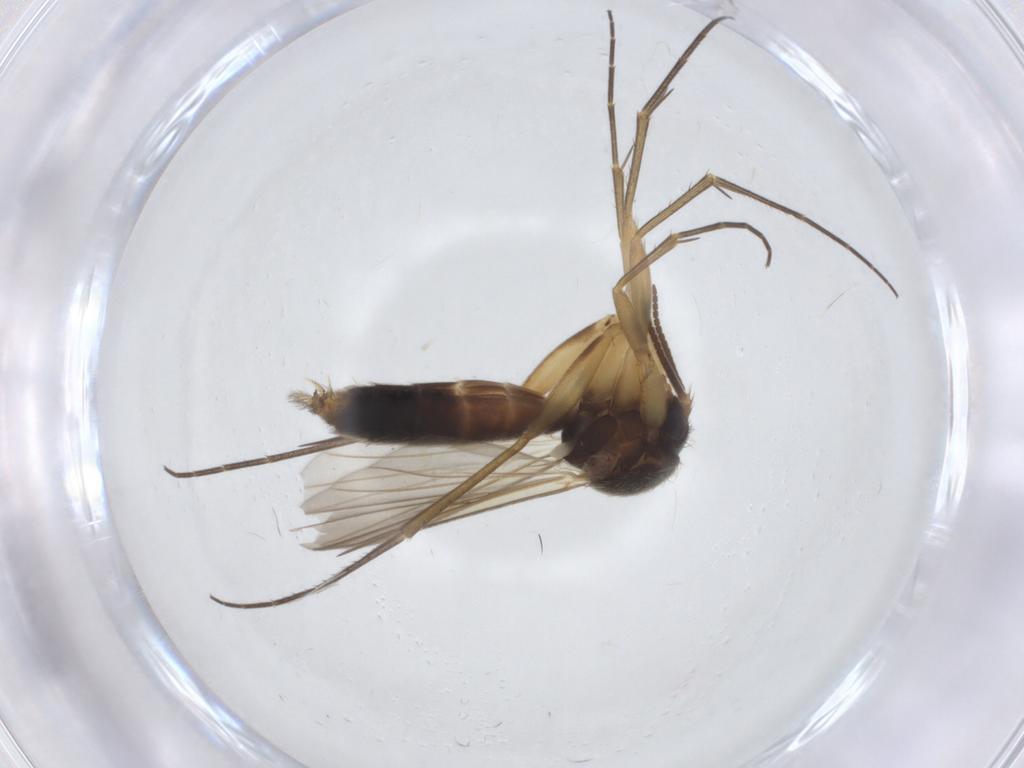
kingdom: Animalia
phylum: Arthropoda
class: Insecta
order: Diptera
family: Mycetophilidae
